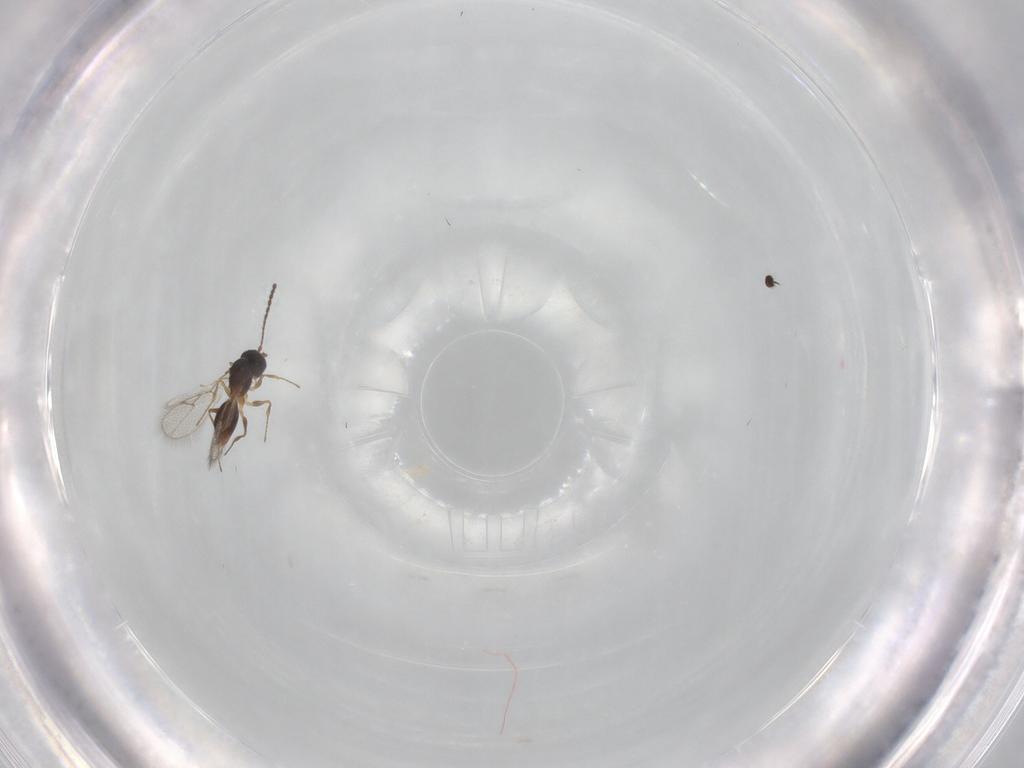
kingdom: Animalia
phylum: Arthropoda
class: Insecta
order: Hymenoptera
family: Figitidae
